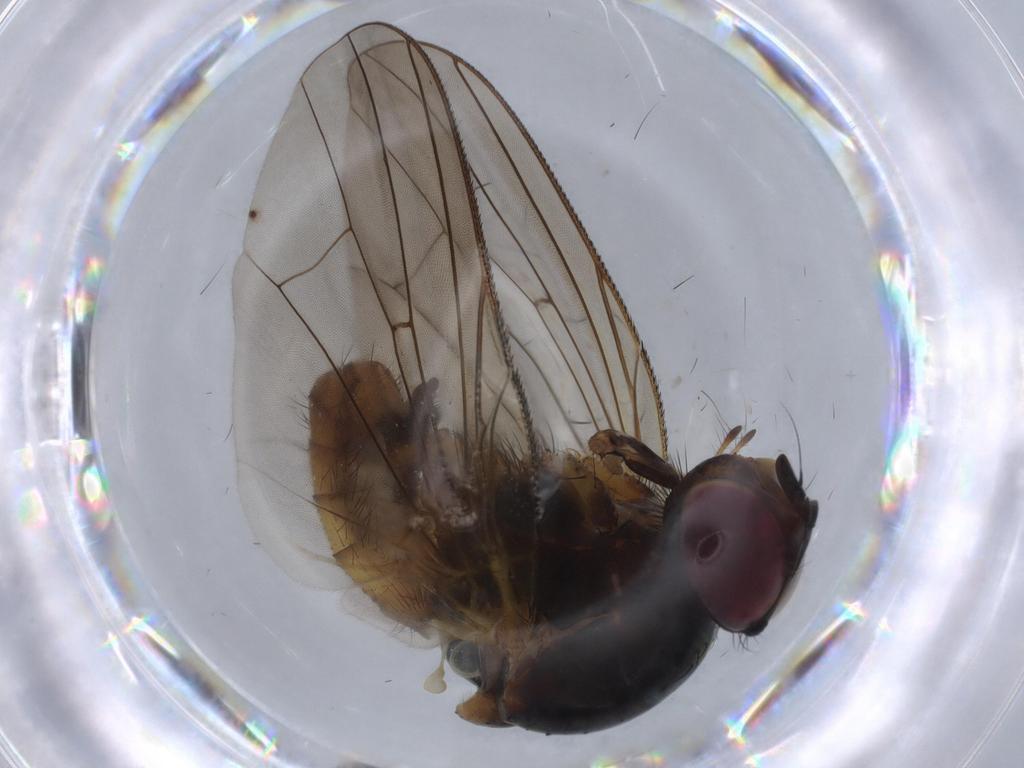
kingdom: Animalia
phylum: Arthropoda
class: Insecta
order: Diptera
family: Anthomyiidae
